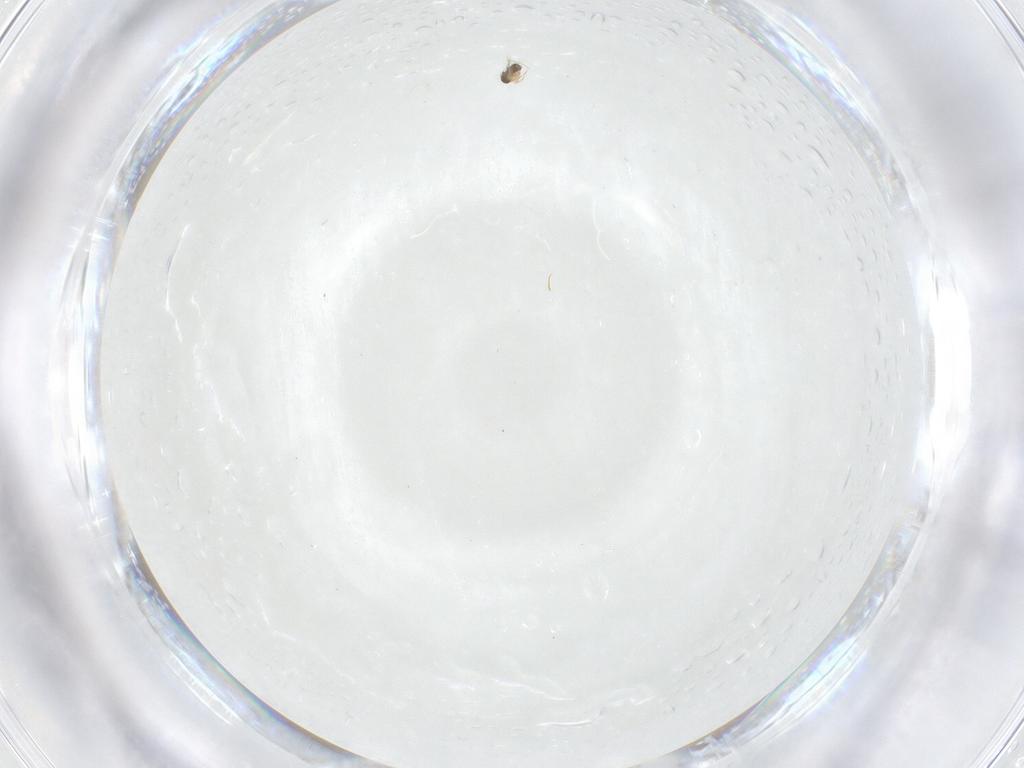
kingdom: Animalia
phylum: Arthropoda
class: Insecta
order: Hymenoptera
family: Mymaridae
